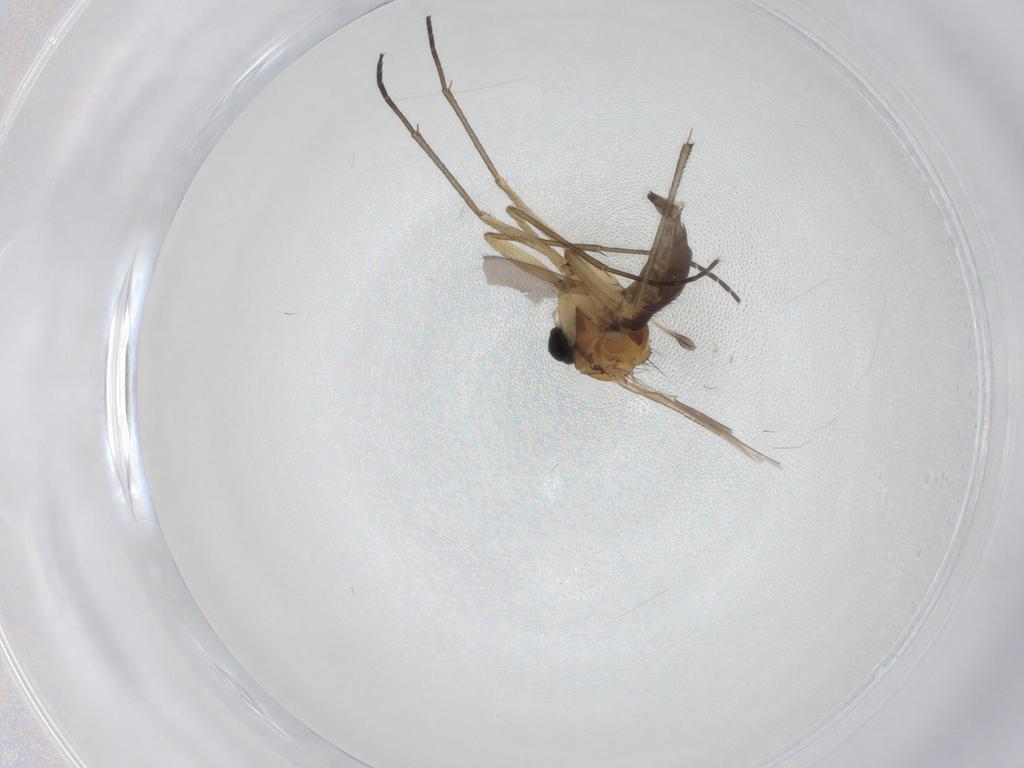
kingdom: Animalia
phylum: Arthropoda
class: Insecta
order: Diptera
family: Sciaridae
